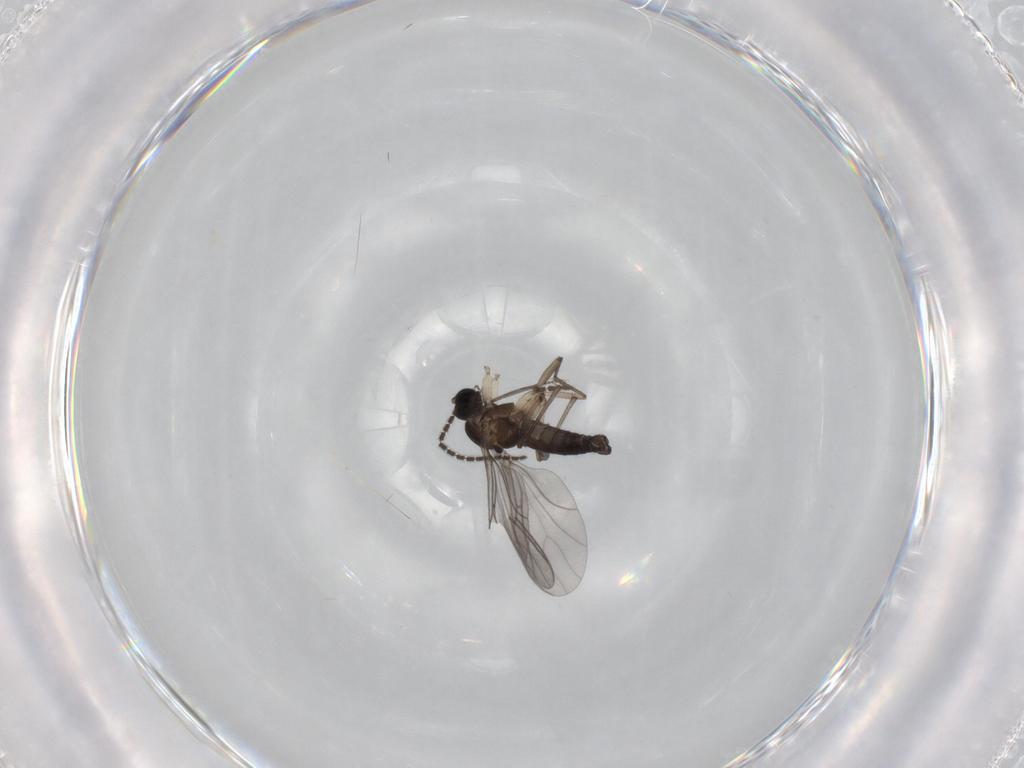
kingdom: Animalia
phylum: Arthropoda
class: Insecta
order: Diptera
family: Sciaridae
